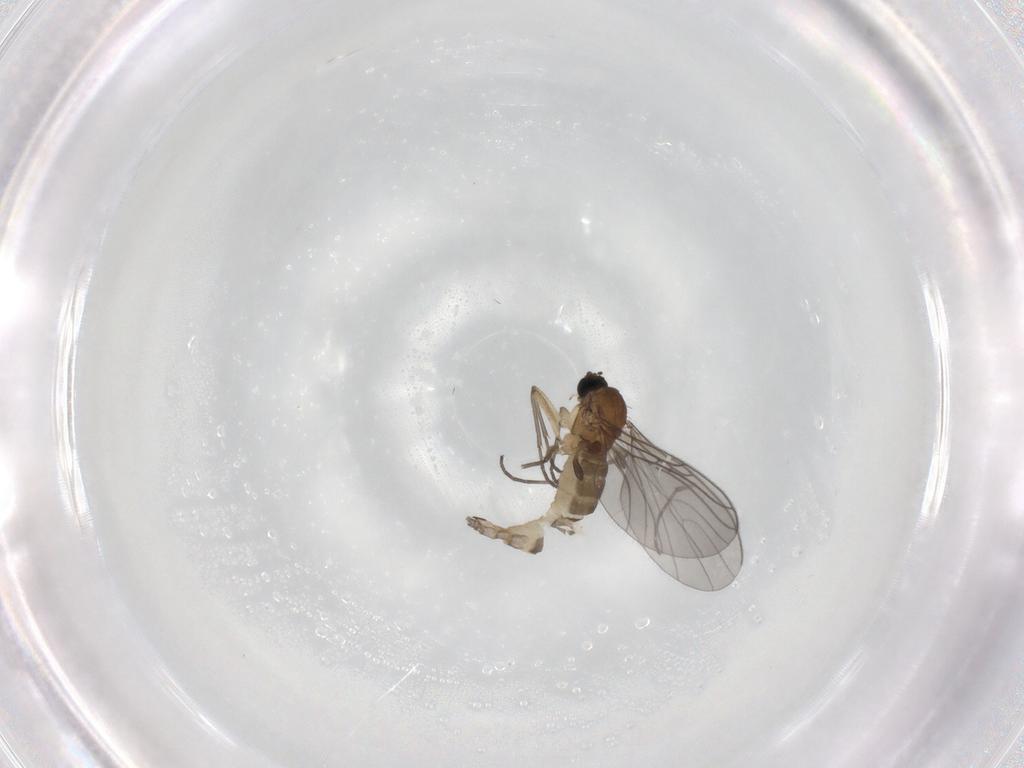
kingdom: Animalia
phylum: Arthropoda
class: Insecta
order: Diptera
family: Sciaridae
